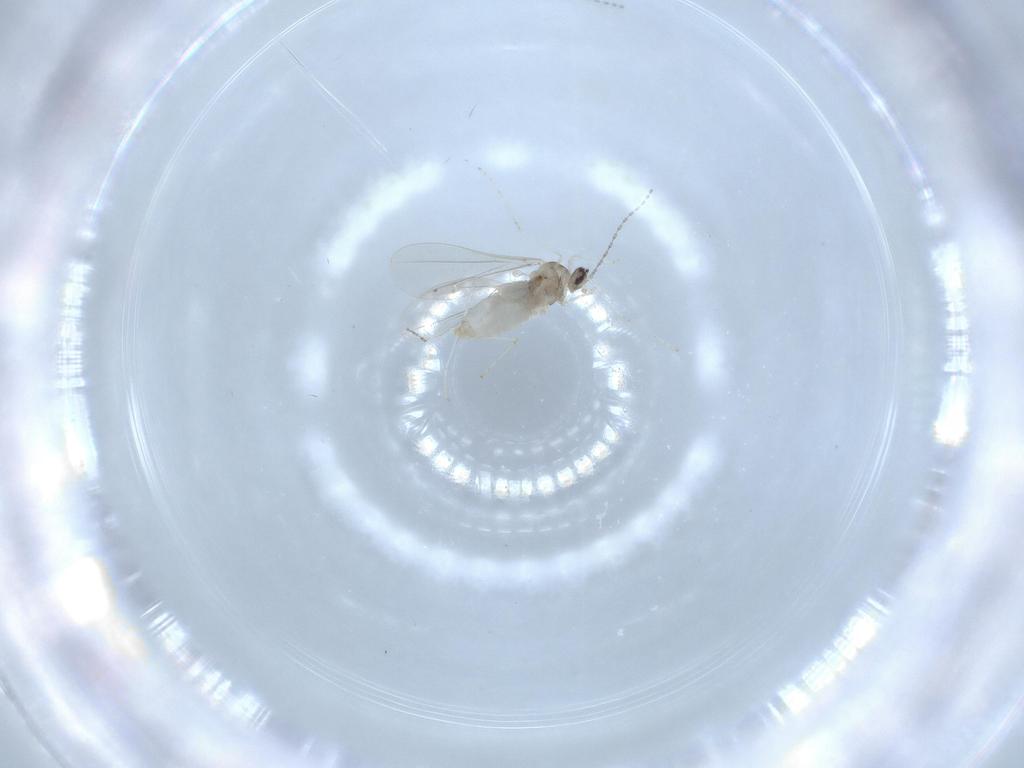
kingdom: Animalia
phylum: Arthropoda
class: Insecta
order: Diptera
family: Cecidomyiidae
